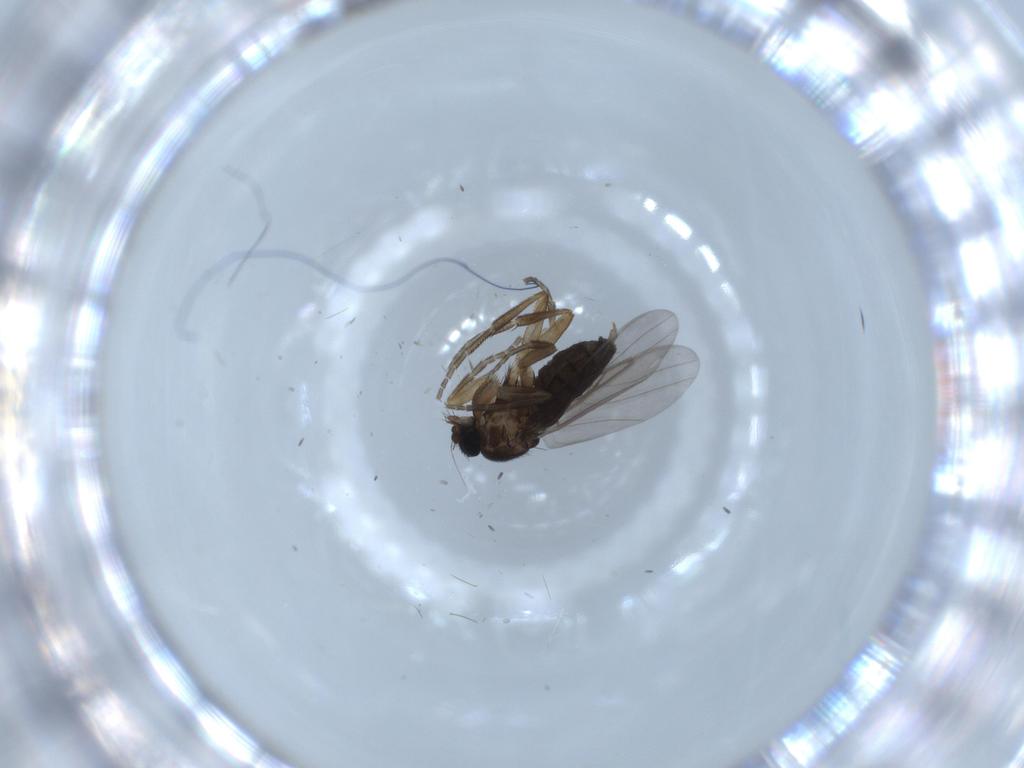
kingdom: Animalia
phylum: Arthropoda
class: Insecta
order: Diptera
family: Phoridae
